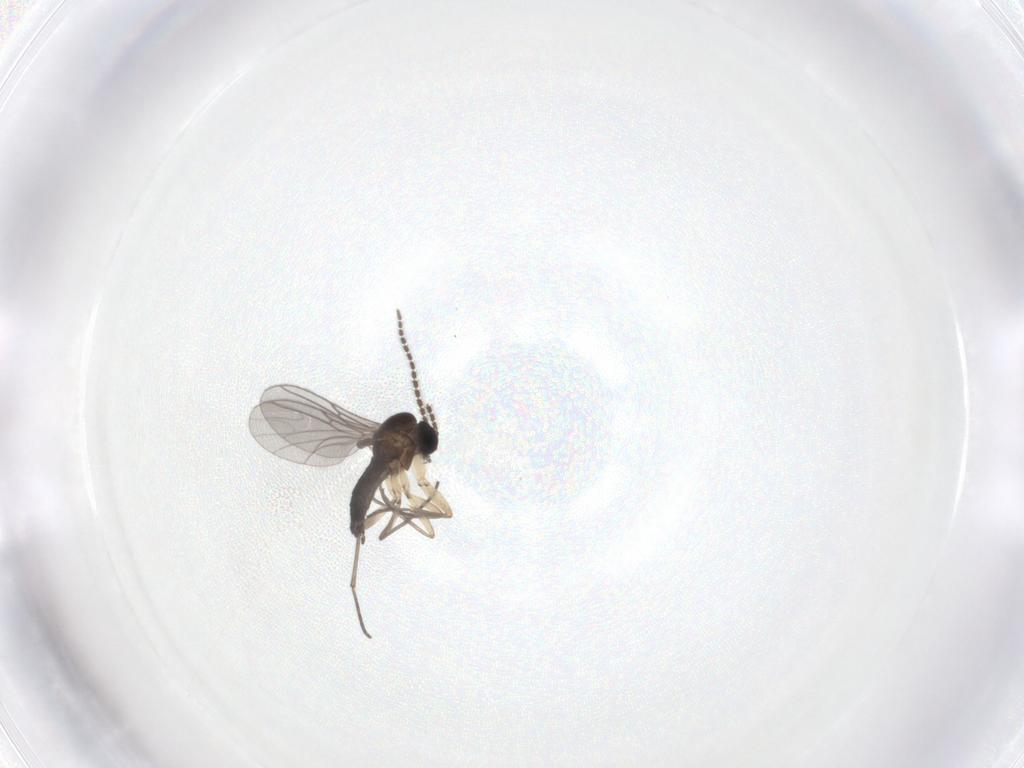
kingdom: Animalia
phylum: Arthropoda
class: Insecta
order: Diptera
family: Sciaridae
